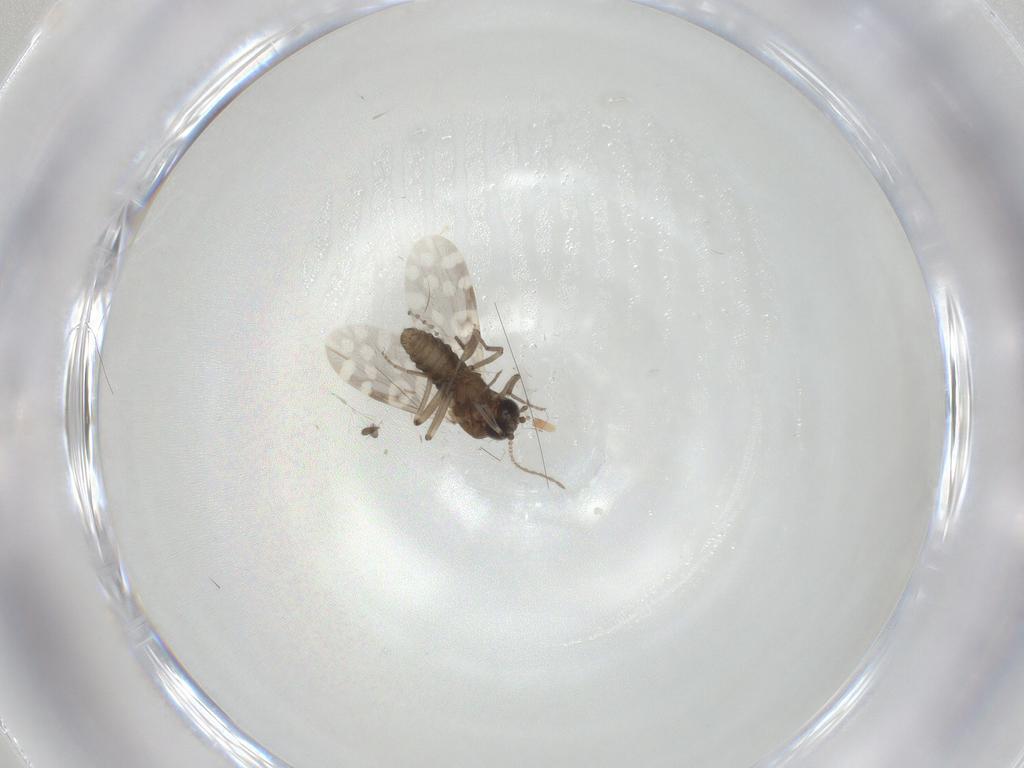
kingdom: Animalia
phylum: Arthropoda
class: Insecta
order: Diptera
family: Cecidomyiidae
